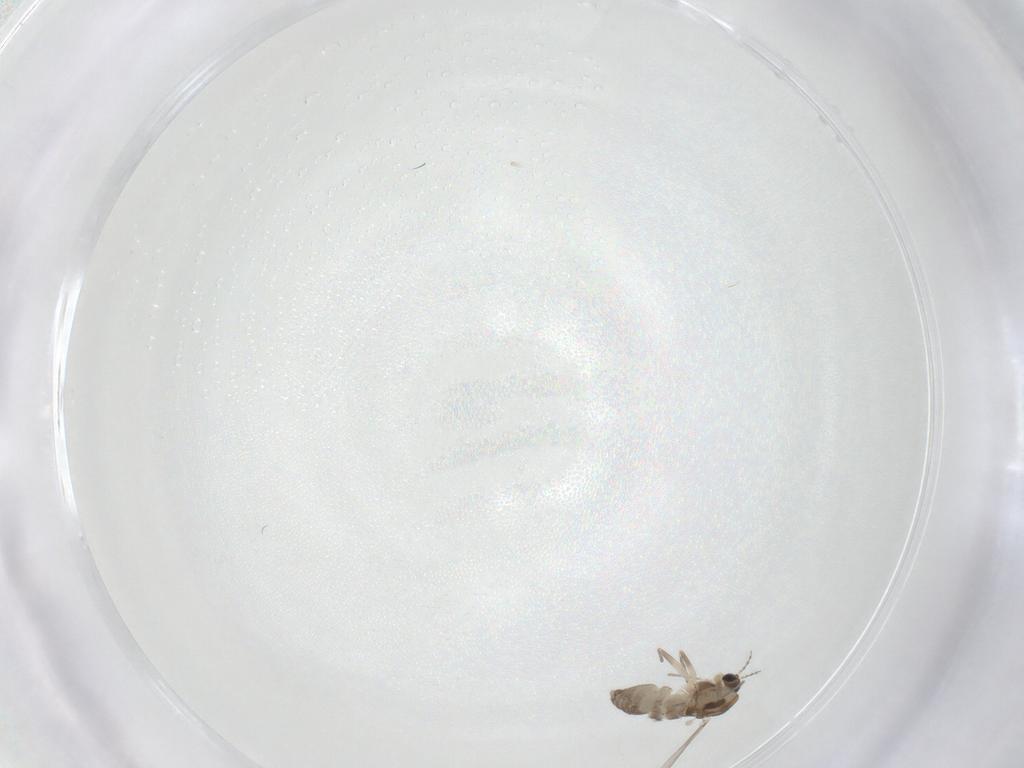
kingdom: Animalia
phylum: Arthropoda
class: Insecta
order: Diptera
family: Chironomidae
